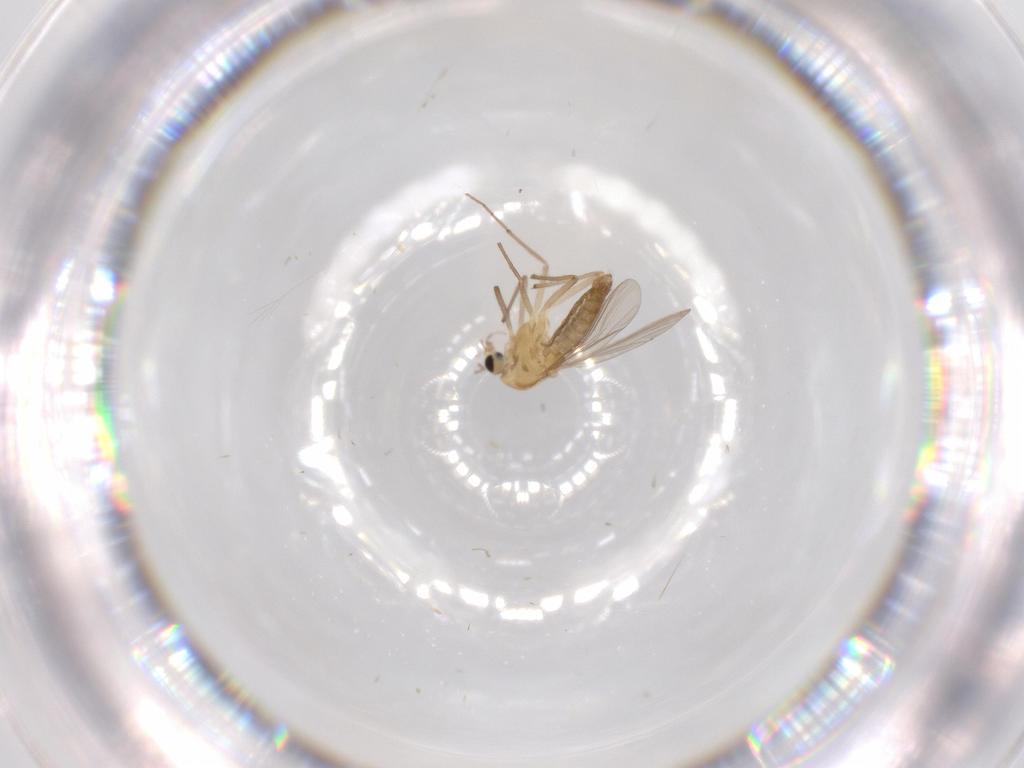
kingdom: Animalia
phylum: Arthropoda
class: Insecta
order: Diptera
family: Chironomidae
